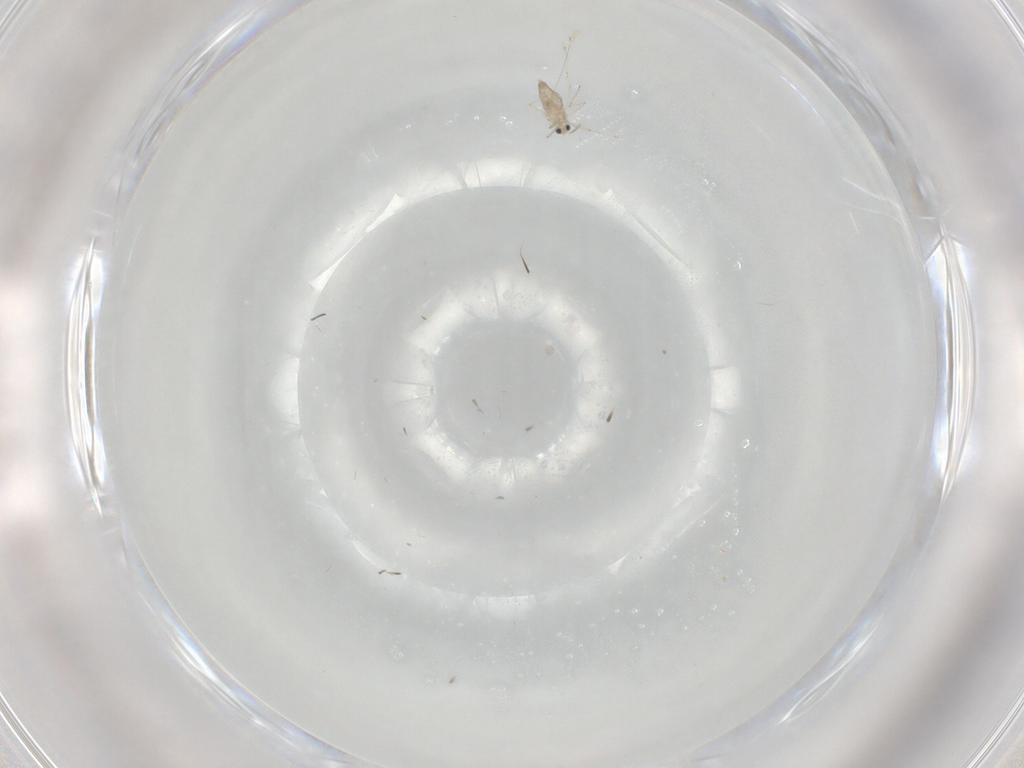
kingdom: Animalia
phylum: Arthropoda
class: Insecta
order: Diptera
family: Cecidomyiidae
